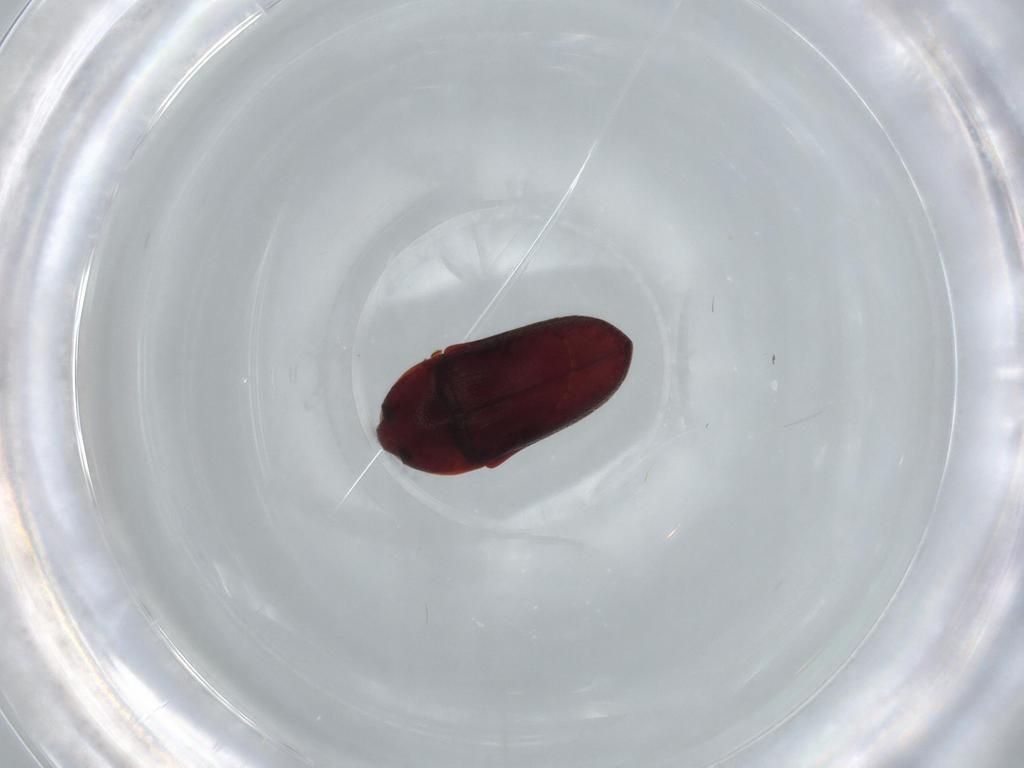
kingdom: Animalia
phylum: Arthropoda
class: Insecta
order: Coleoptera
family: Throscidae
